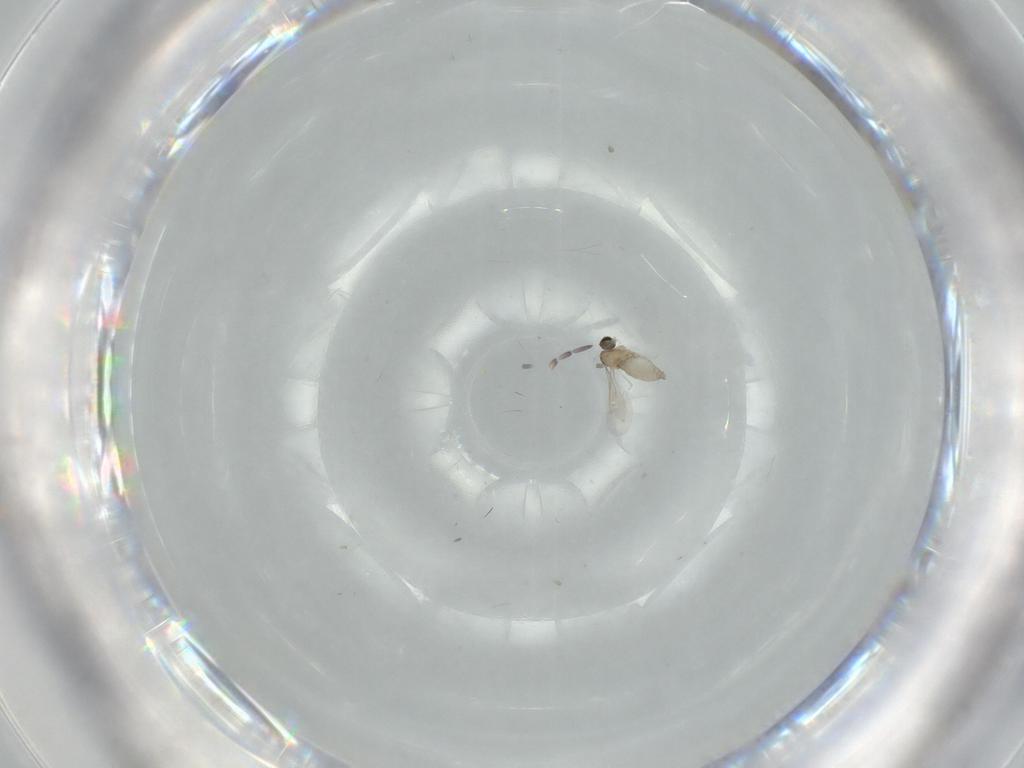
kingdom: Animalia
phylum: Arthropoda
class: Insecta
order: Diptera
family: Cecidomyiidae
